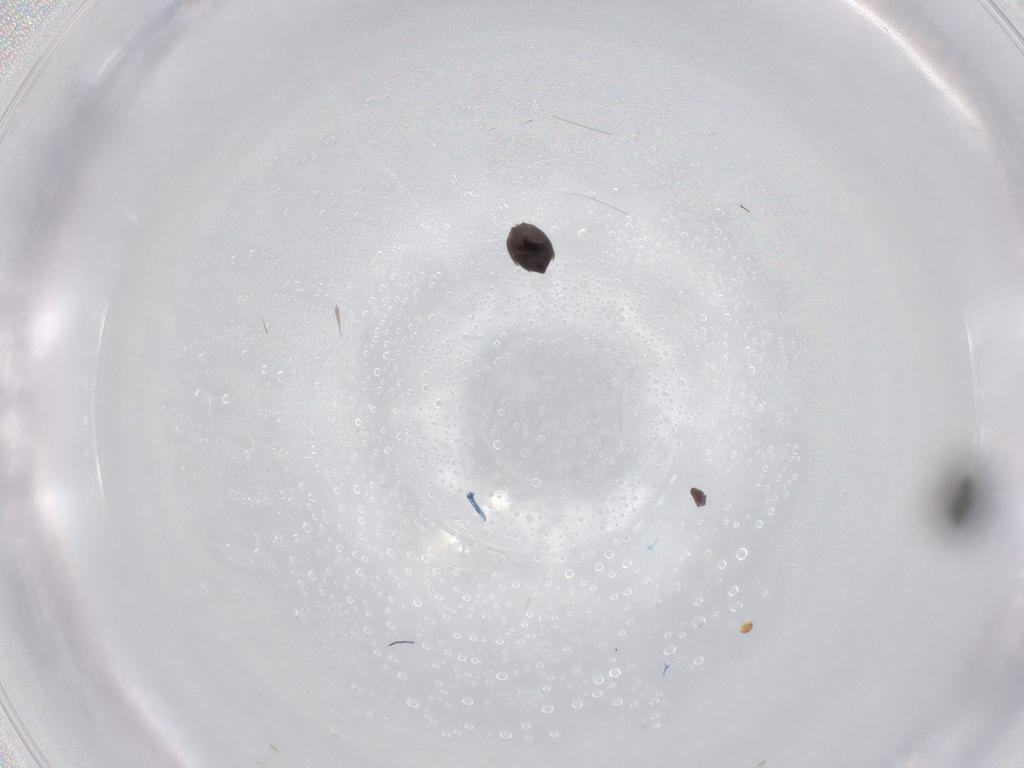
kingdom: Animalia
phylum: Arthropoda
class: Insecta
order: Hymenoptera
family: Scelionidae
